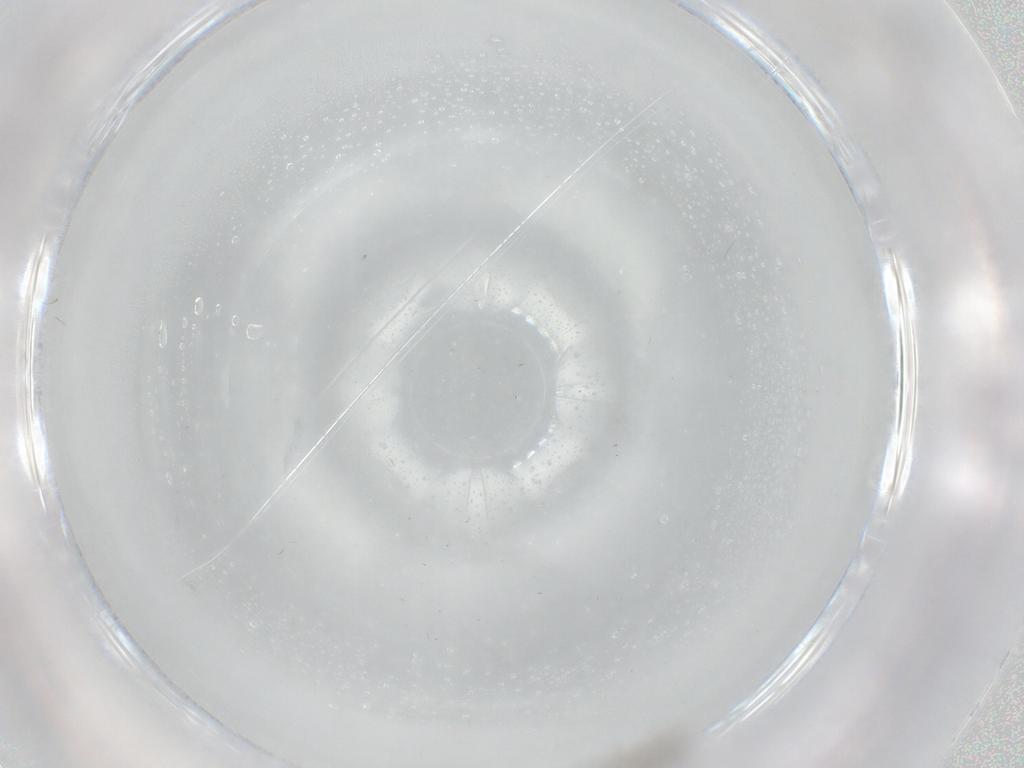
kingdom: Animalia
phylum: Arthropoda
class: Insecta
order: Diptera
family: Cecidomyiidae
